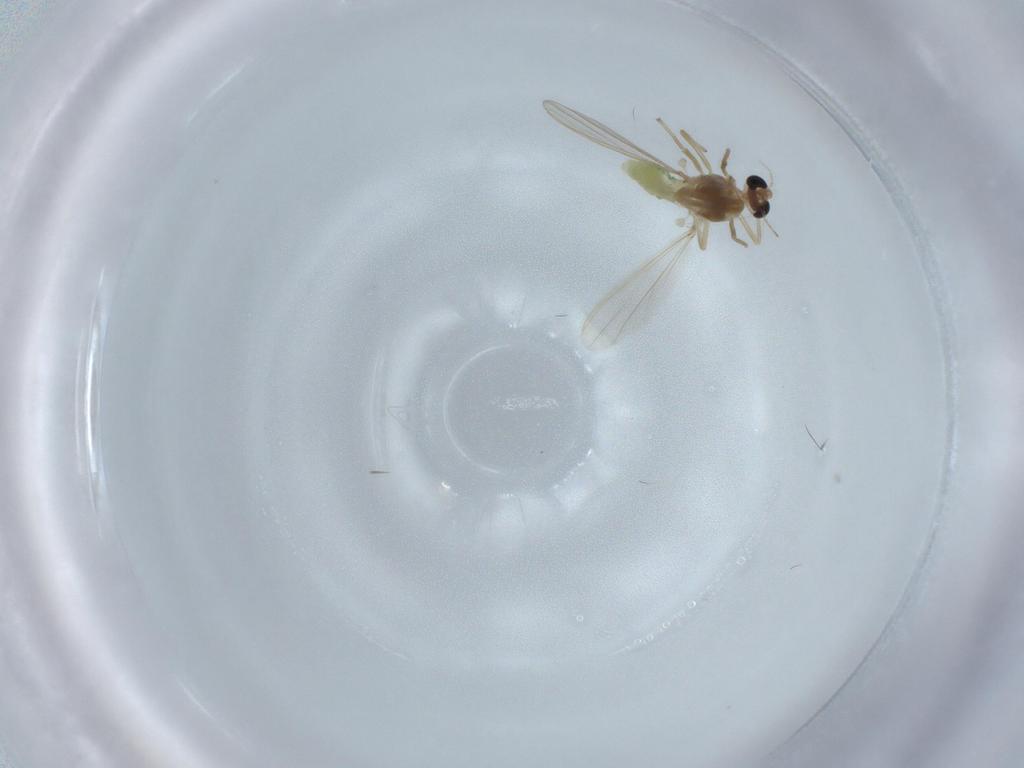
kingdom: Animalia
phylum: Arthropoda
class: Insecta
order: Diptera
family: Chironomidae
